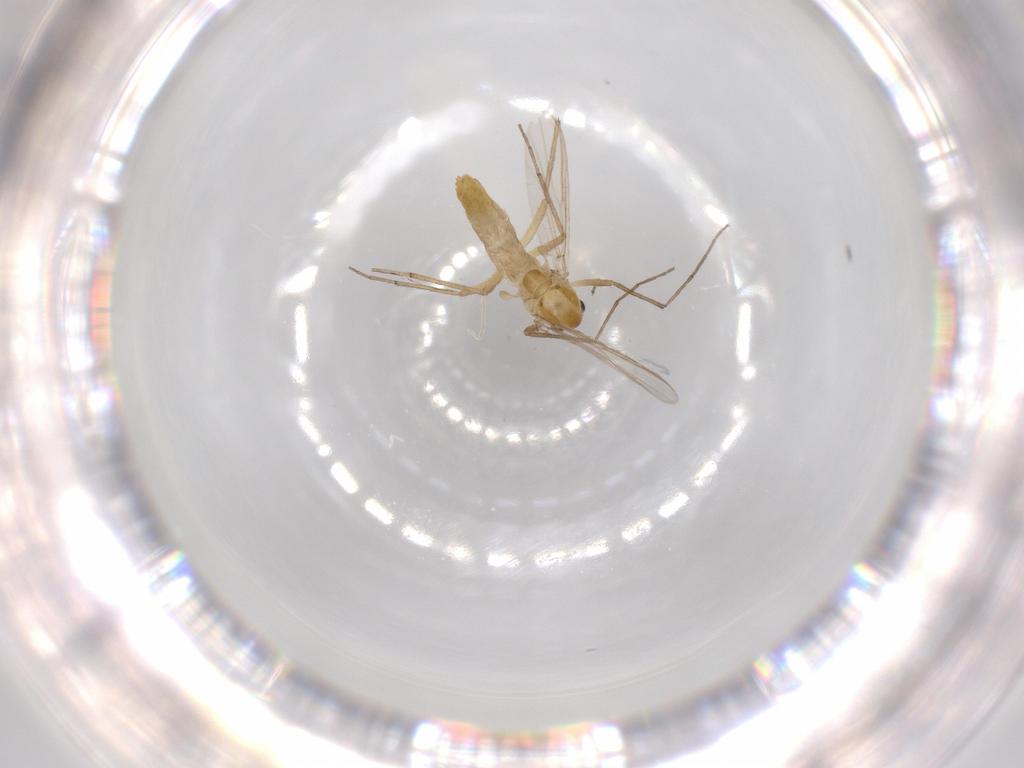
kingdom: Animalia
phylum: Arthropoda
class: Insecta
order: Diptera
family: Chironomidae
